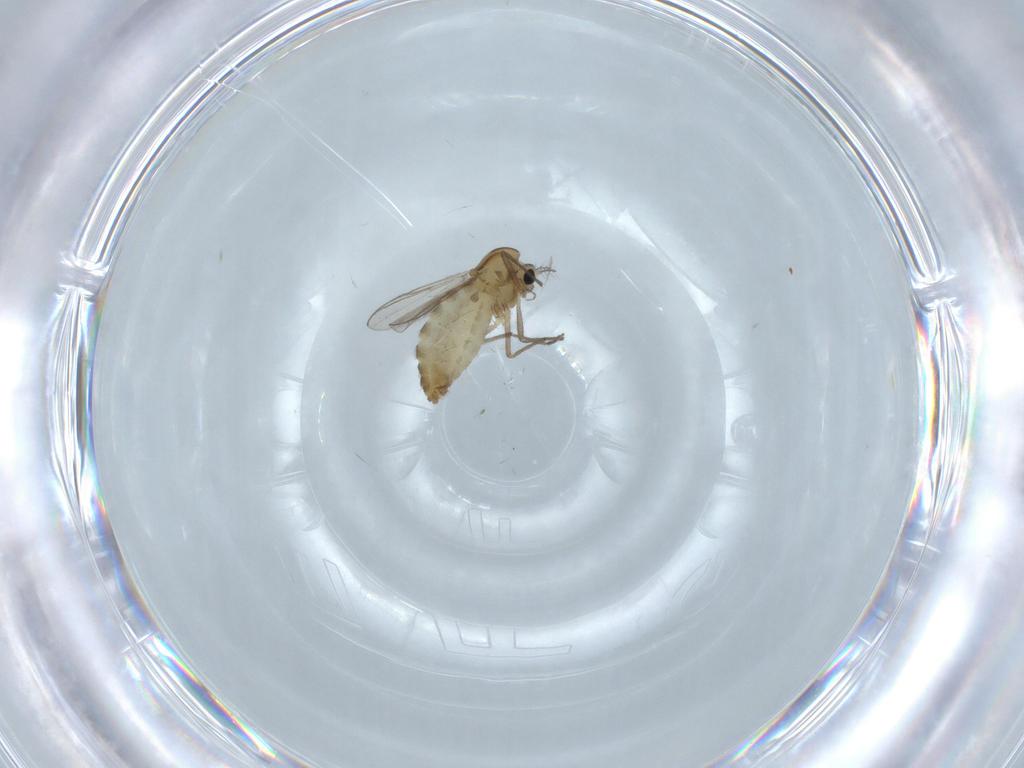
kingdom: Animalia
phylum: Arthropoda
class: Insecta
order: Diptera
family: Chironomidae
